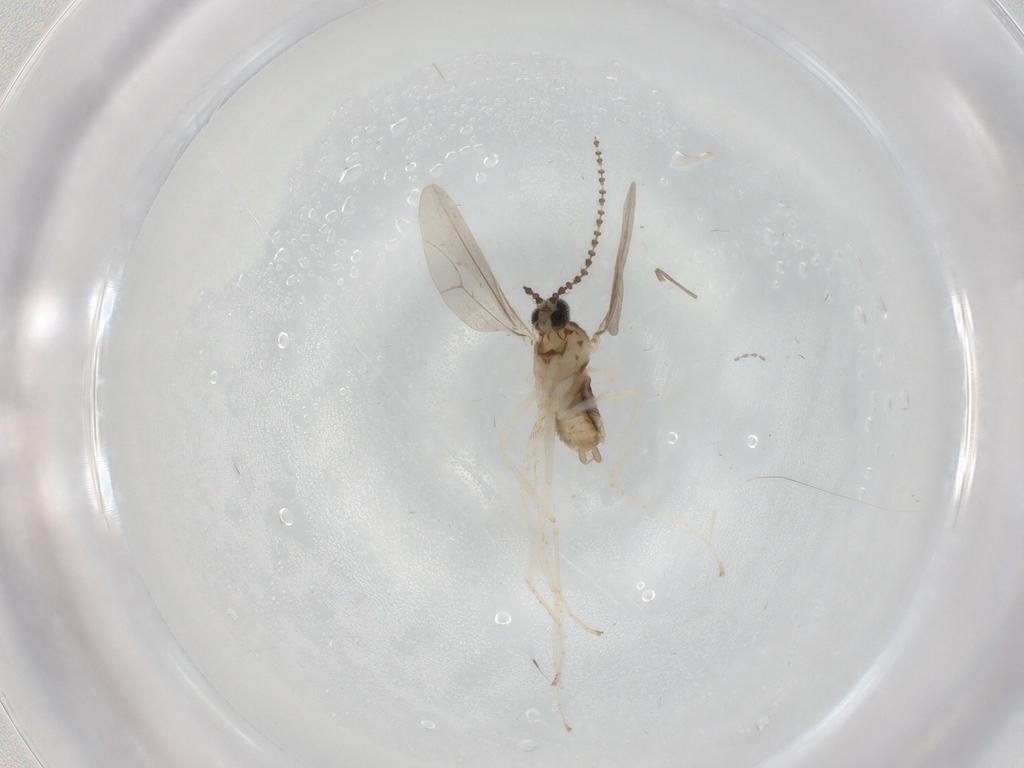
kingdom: Animalia
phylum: Arthropoda
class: Insecta
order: Diptera
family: Chironomidae
